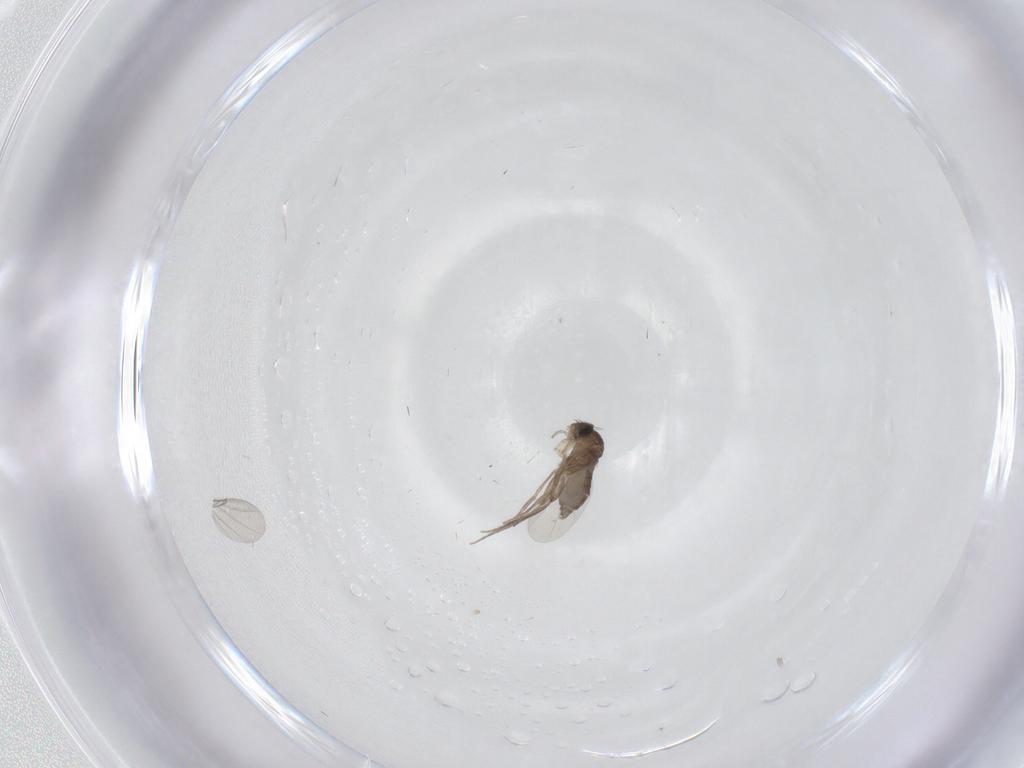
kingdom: Animalia
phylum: Arthropoda
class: Insecta
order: Diptera
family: Phoridae
